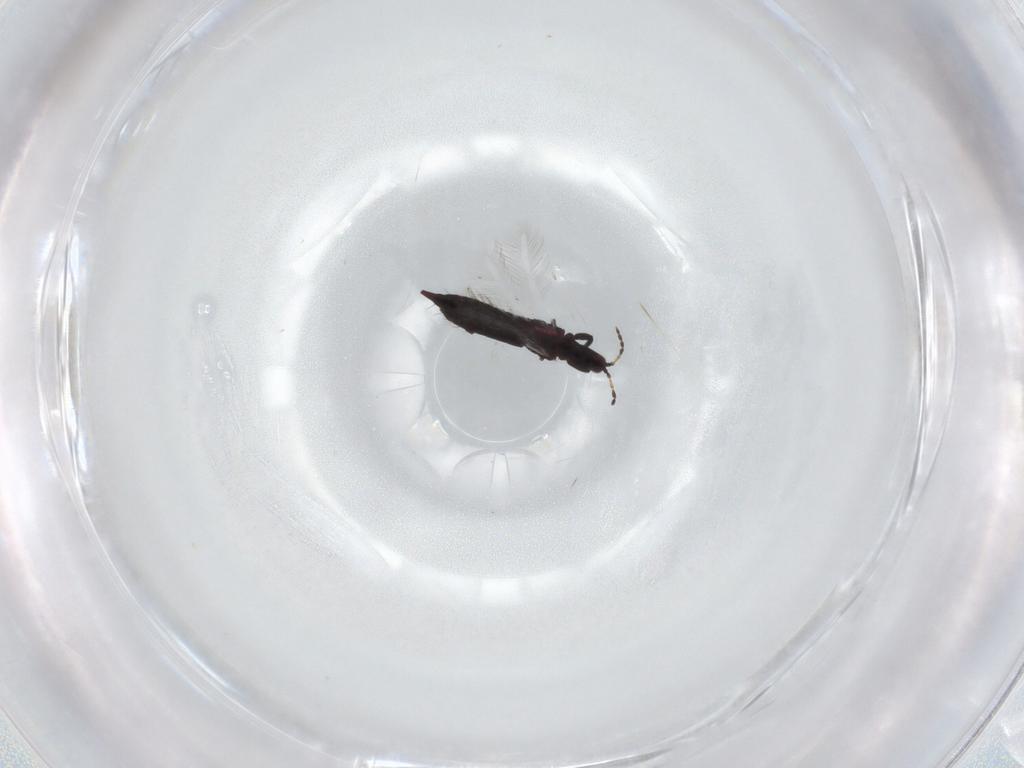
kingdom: Animalia
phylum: Arthropoda
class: Insecta
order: Thysanoptera
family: Phlaeothripidae
